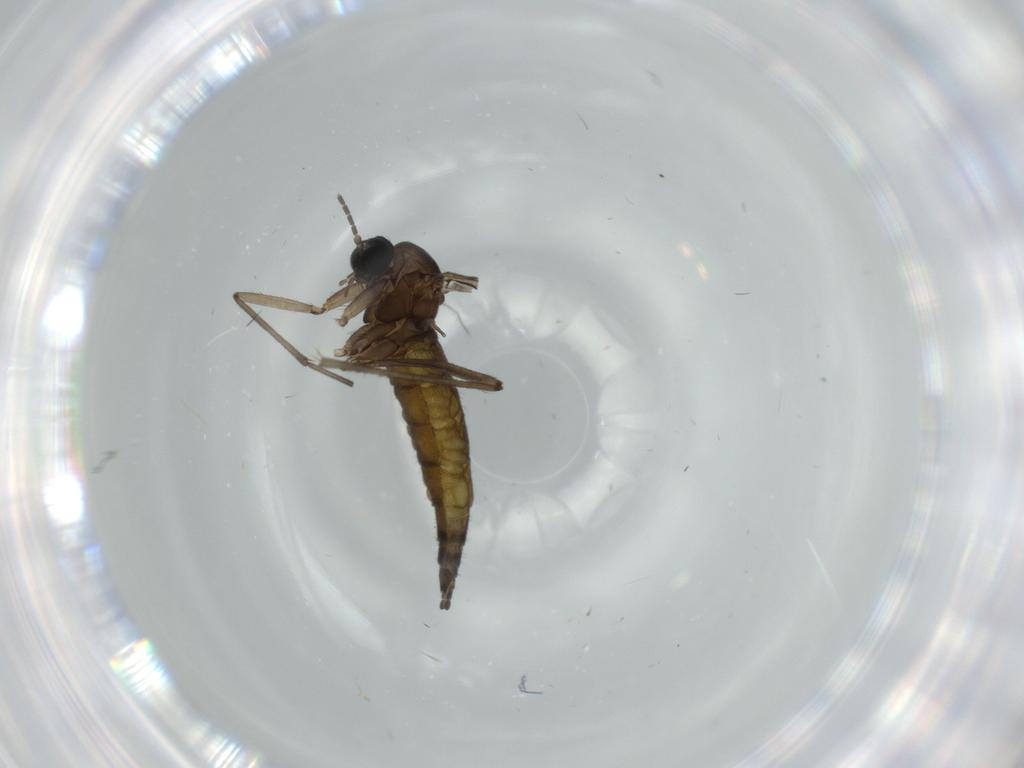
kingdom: Animalia
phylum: Arthropoda
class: Insecta
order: Diptera
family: Sciaridae
